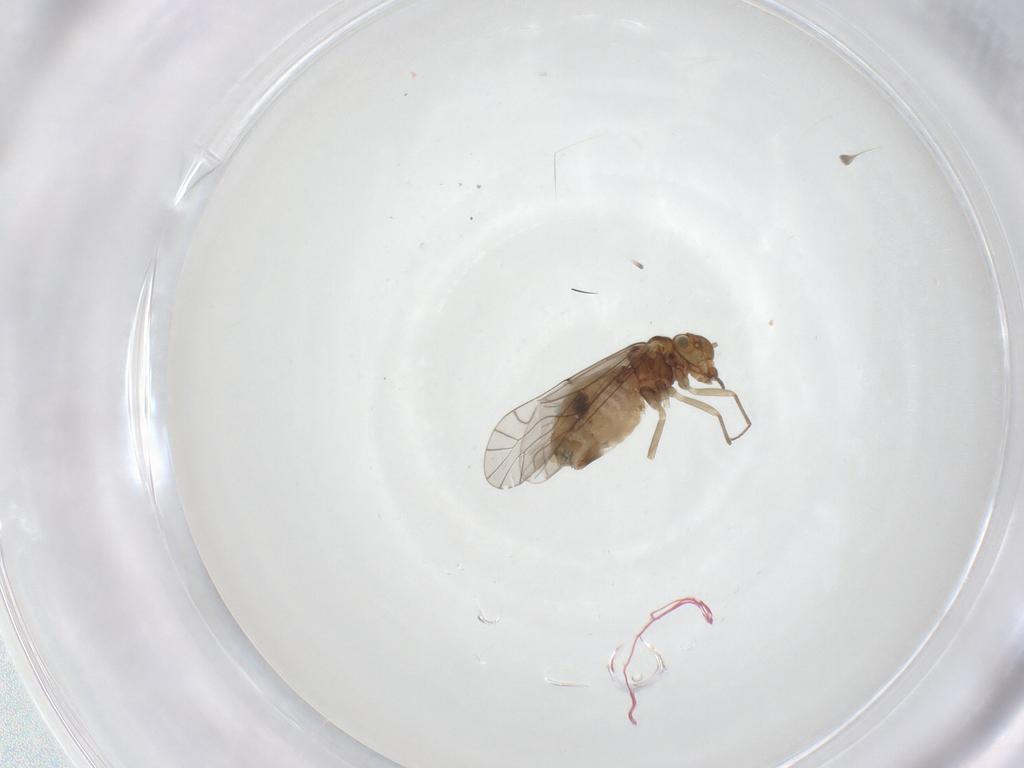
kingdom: Animalia
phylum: Arthropoda
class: Insecta
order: Psocodea
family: Lachesillidae
